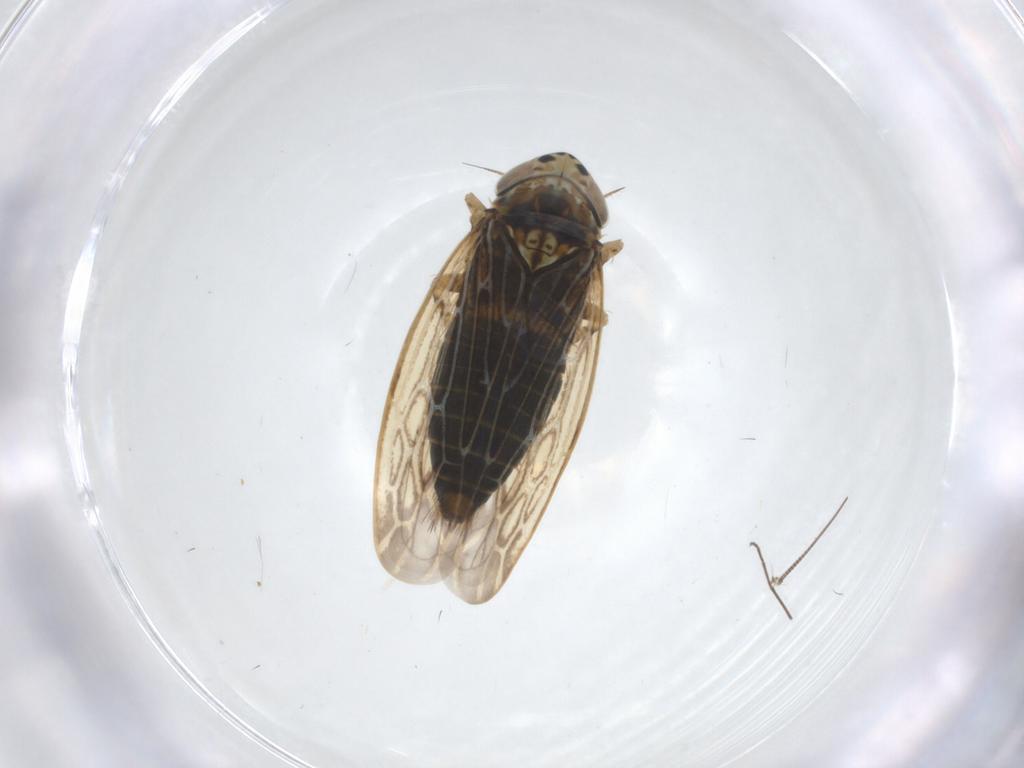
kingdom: Animalia
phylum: Arthropoda
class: Insecta
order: Hemiptera
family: Cicadellidae
